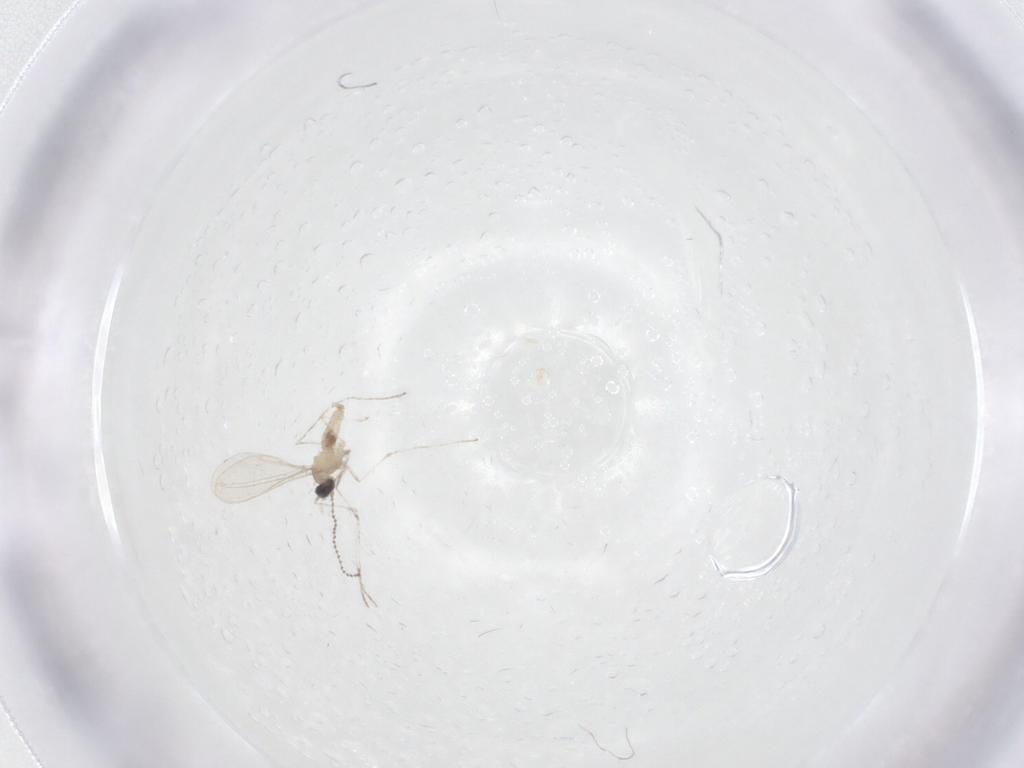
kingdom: Animalia
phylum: Arthropoda
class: Insecta
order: Diptera
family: Cecidomyiidae
